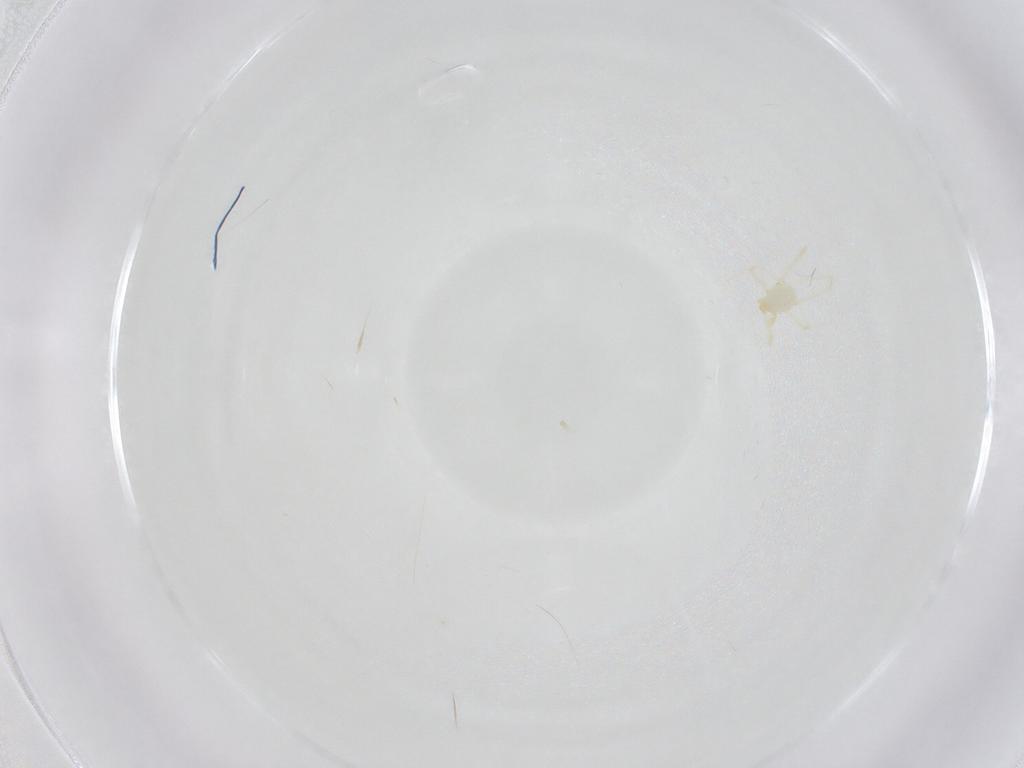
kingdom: Animalia
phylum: Arthropoda
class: Arachnida
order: Trombidiformes
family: Erythraeidae
